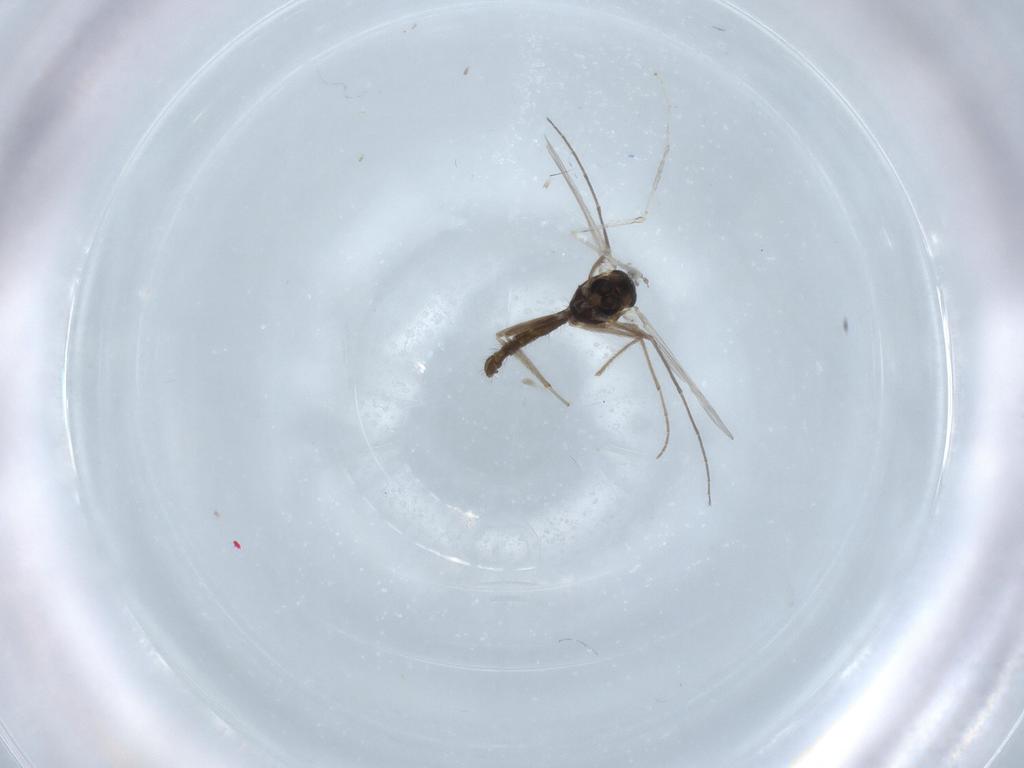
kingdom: Animalia
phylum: Arthropoda
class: Insecta
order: Diptera
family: Chironomidae
